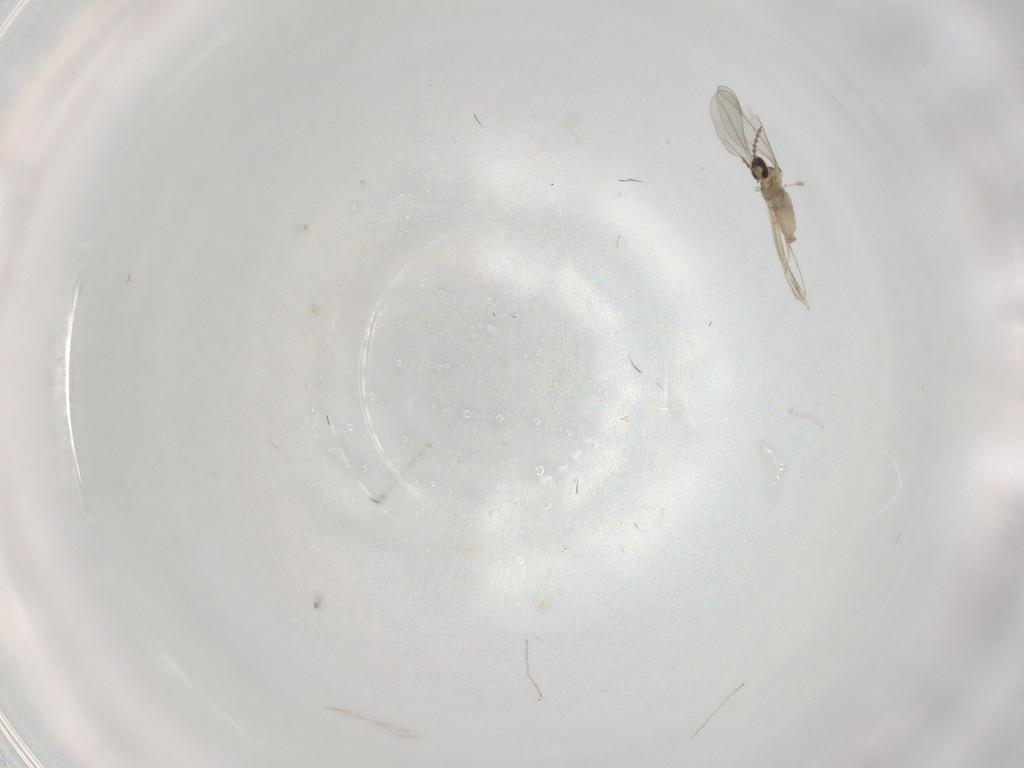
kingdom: Animalia
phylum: Arthropoda
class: Insecta
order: Diptera
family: Cecidomyiidae
